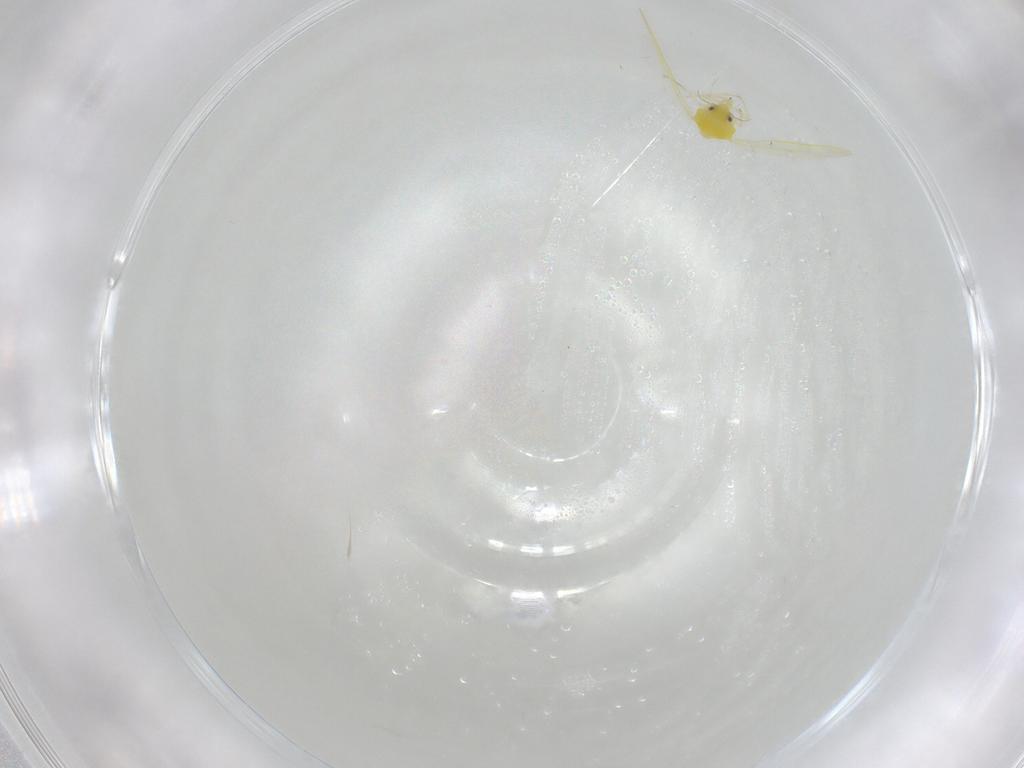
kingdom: Animalia
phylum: Arthropoda
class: Insecta
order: Hemiptera
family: Aleyrodidae
